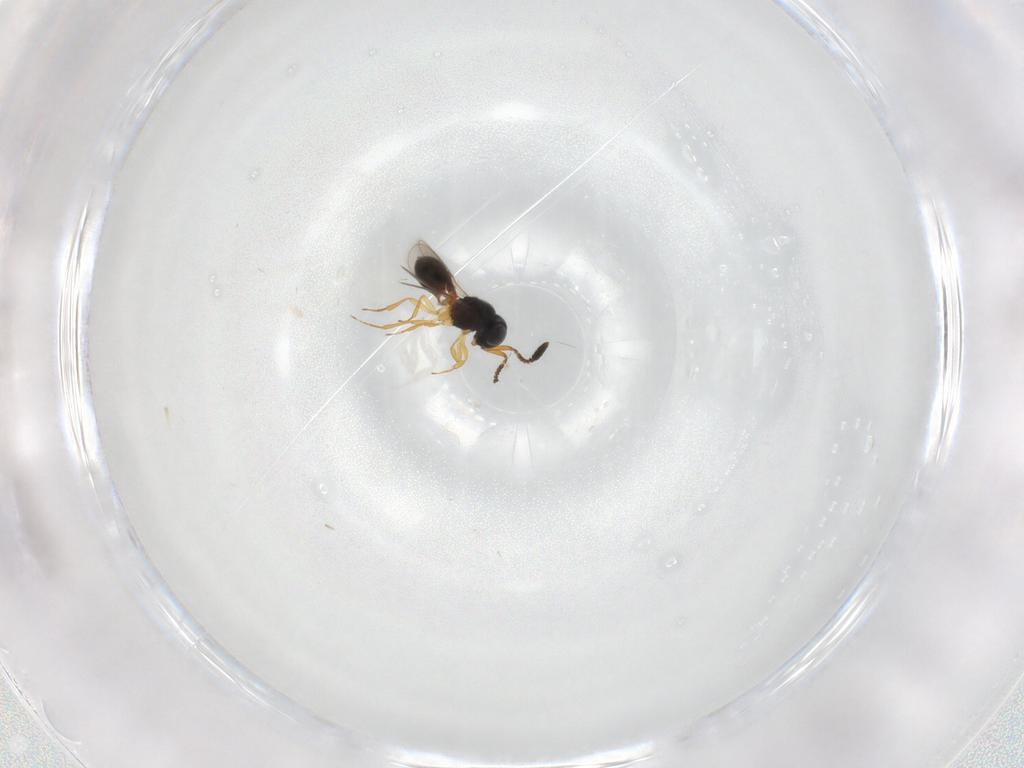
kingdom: Animalia
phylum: Arthropoda
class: Insecta
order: Hymenoptera
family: Scelionidae
